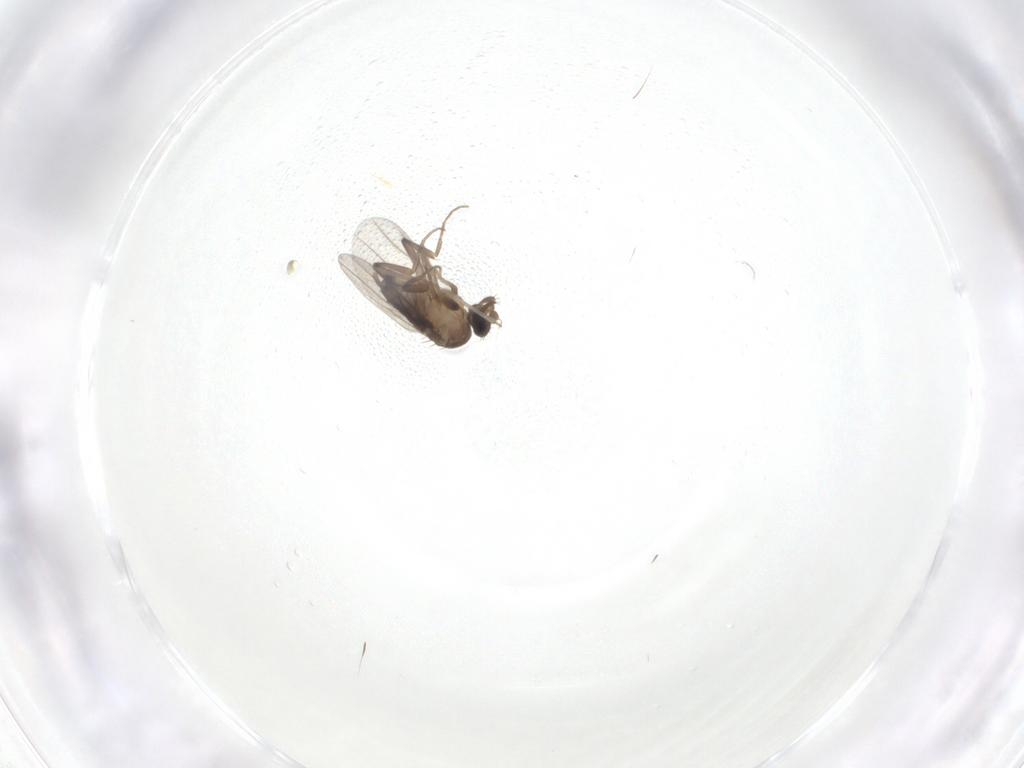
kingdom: Animalia
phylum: Arthropoda
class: Insecta
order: Diptera
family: Phoridae
